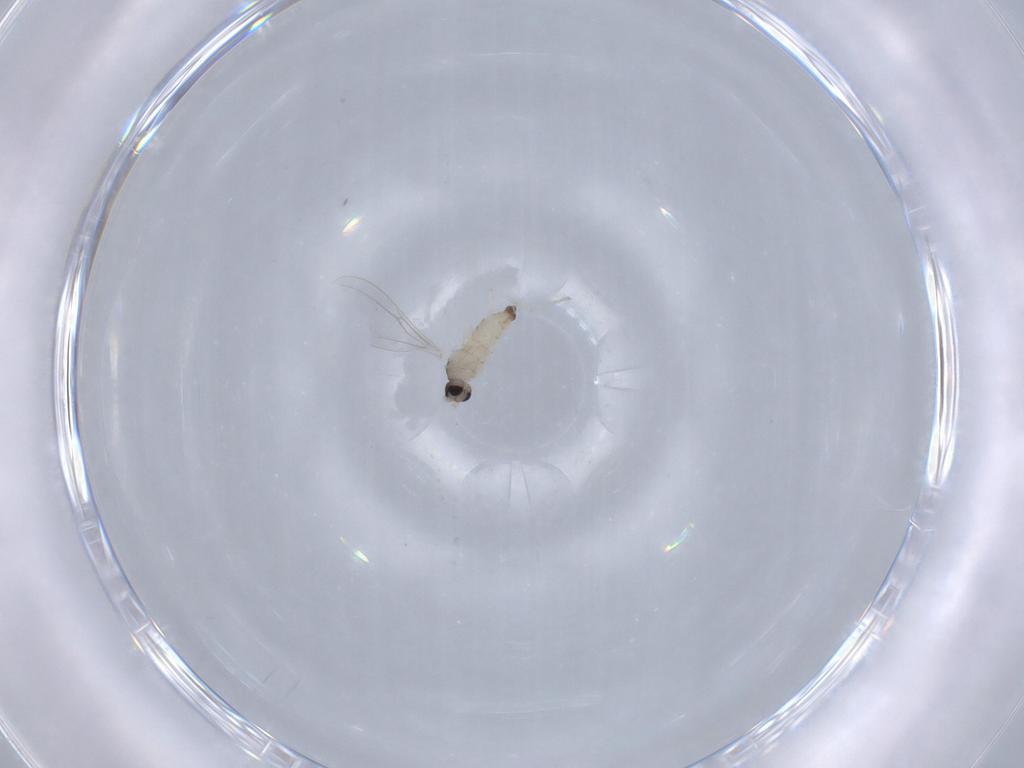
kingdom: Animalia
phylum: Arthropoda
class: Insecta
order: Diptera
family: Cecidomyiidae
